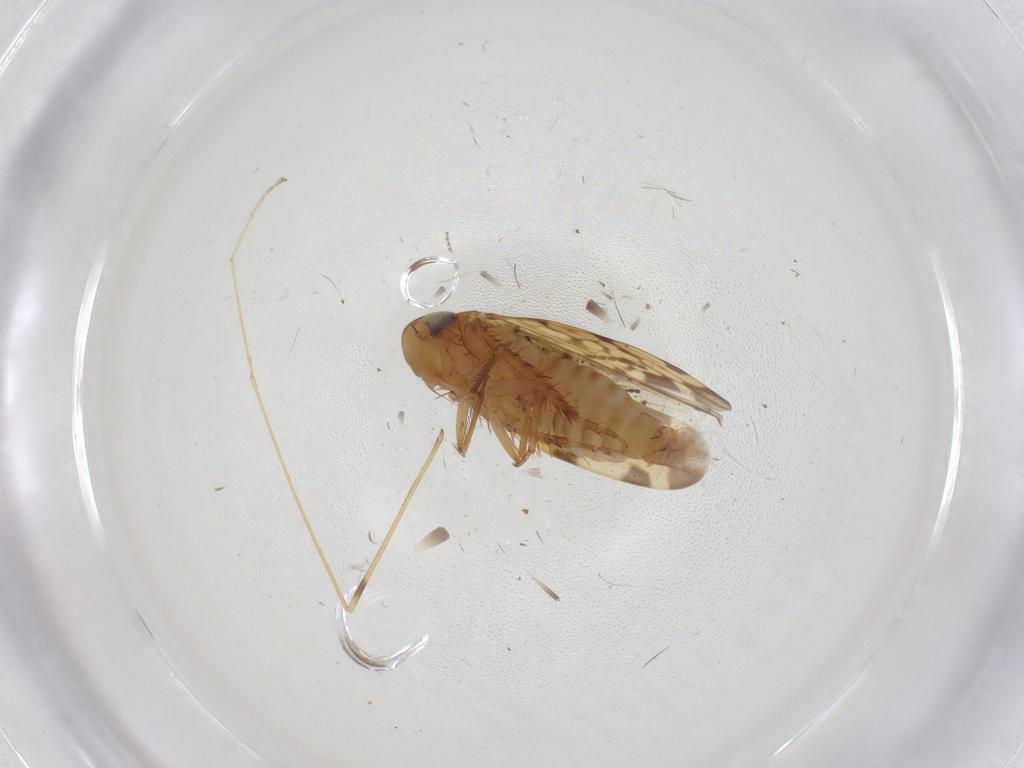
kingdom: Animalia
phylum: Arthropoda
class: Insecta
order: Hemiptera
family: Cicadellidae
